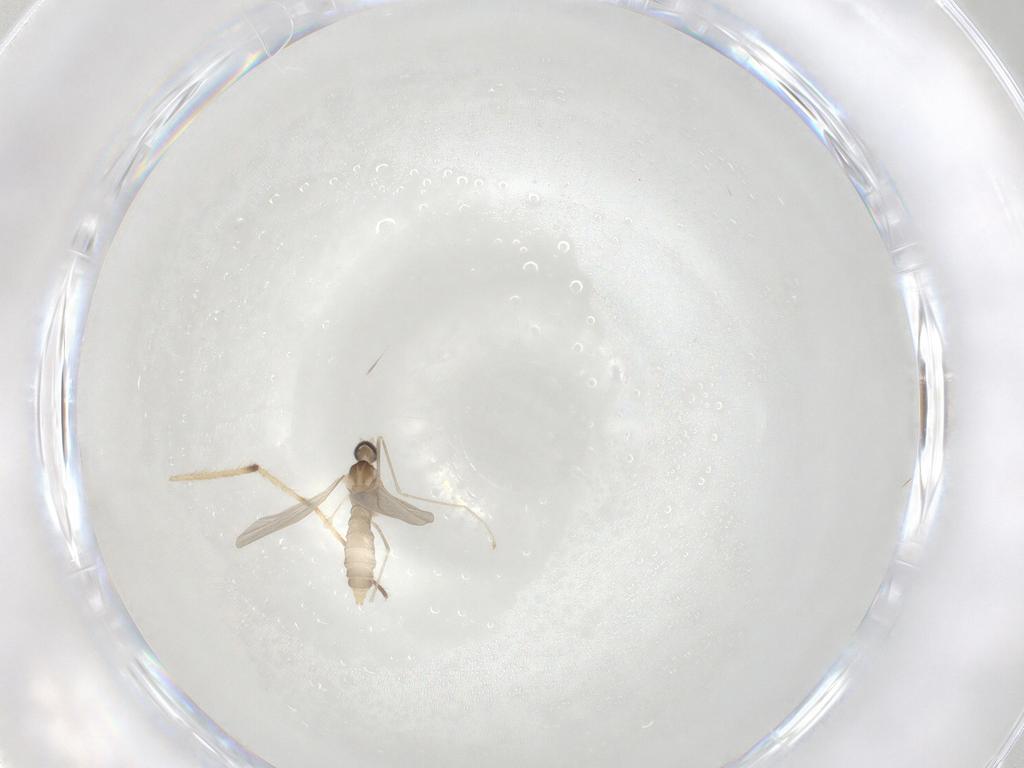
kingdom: Animalia
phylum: Arthropoda
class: Insecta
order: Diptera
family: Cecidomyiidae
